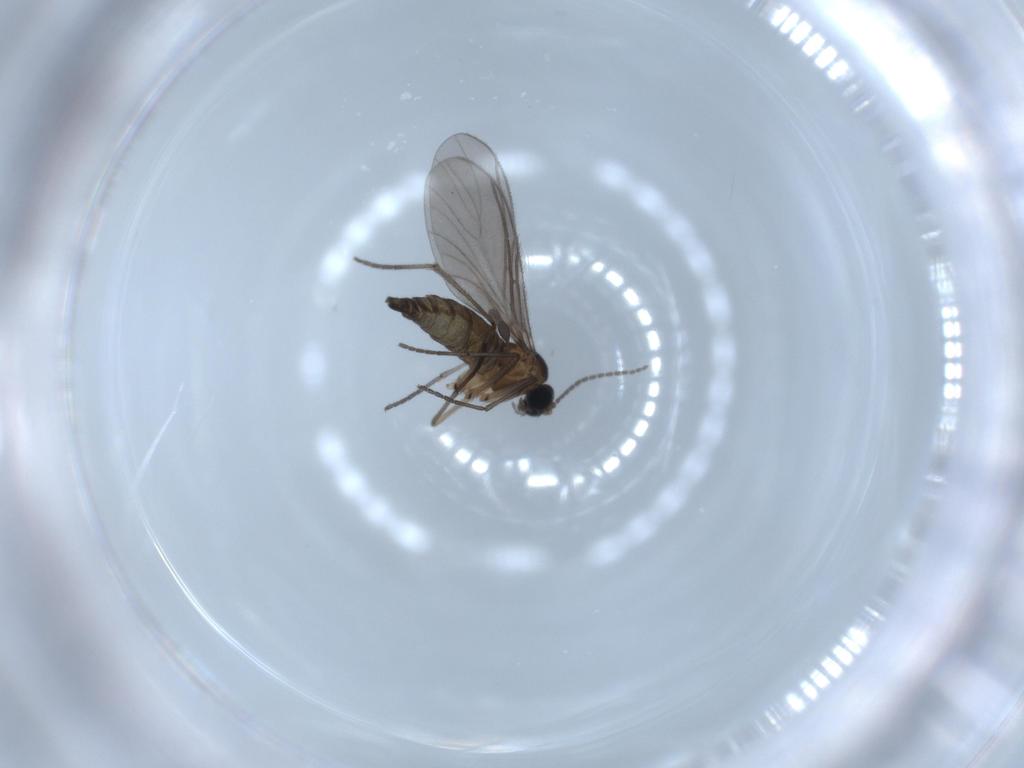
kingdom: Animalia
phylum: Arthropoda
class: Insecta
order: Diptera
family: Sciaridae
